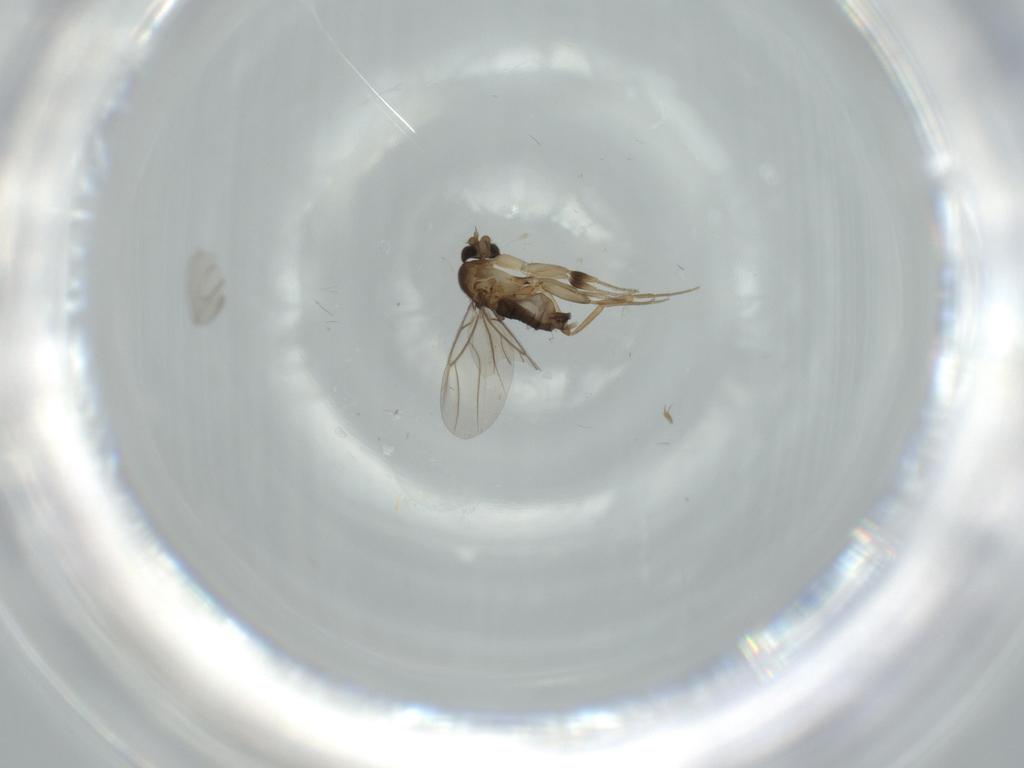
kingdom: Animalia
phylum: Arthropoda
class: Insecta
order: Diptera
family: Phoridae
